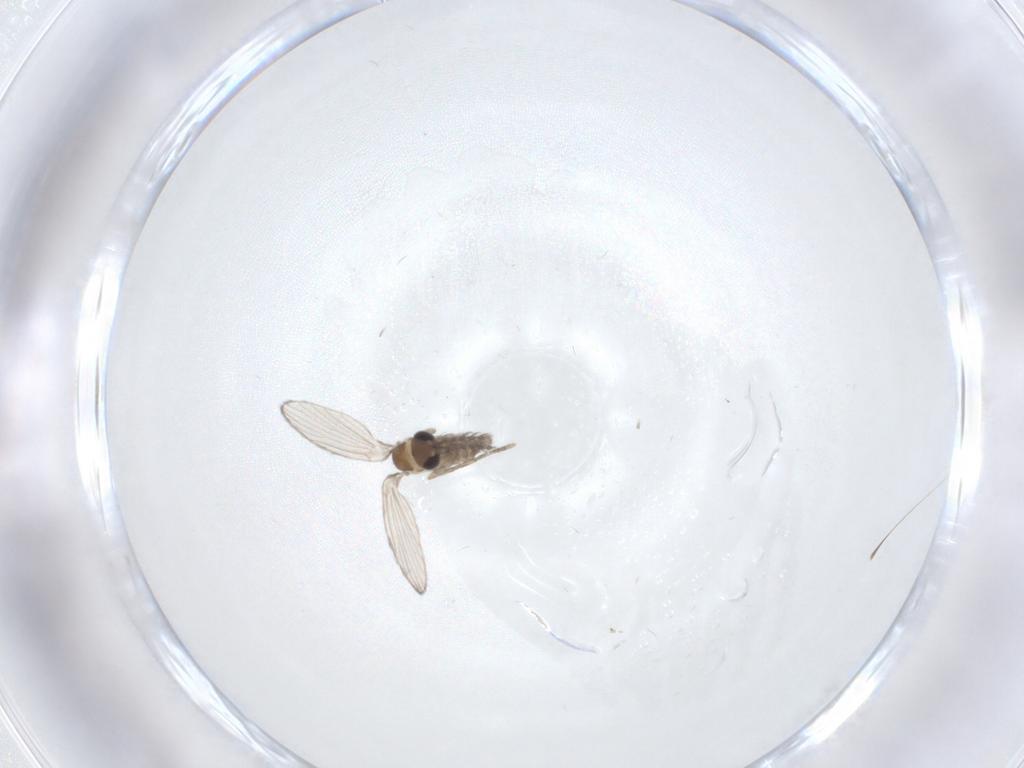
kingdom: Animalia
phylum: Arthropoda
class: Insecta
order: Diptera
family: Psychodidae
